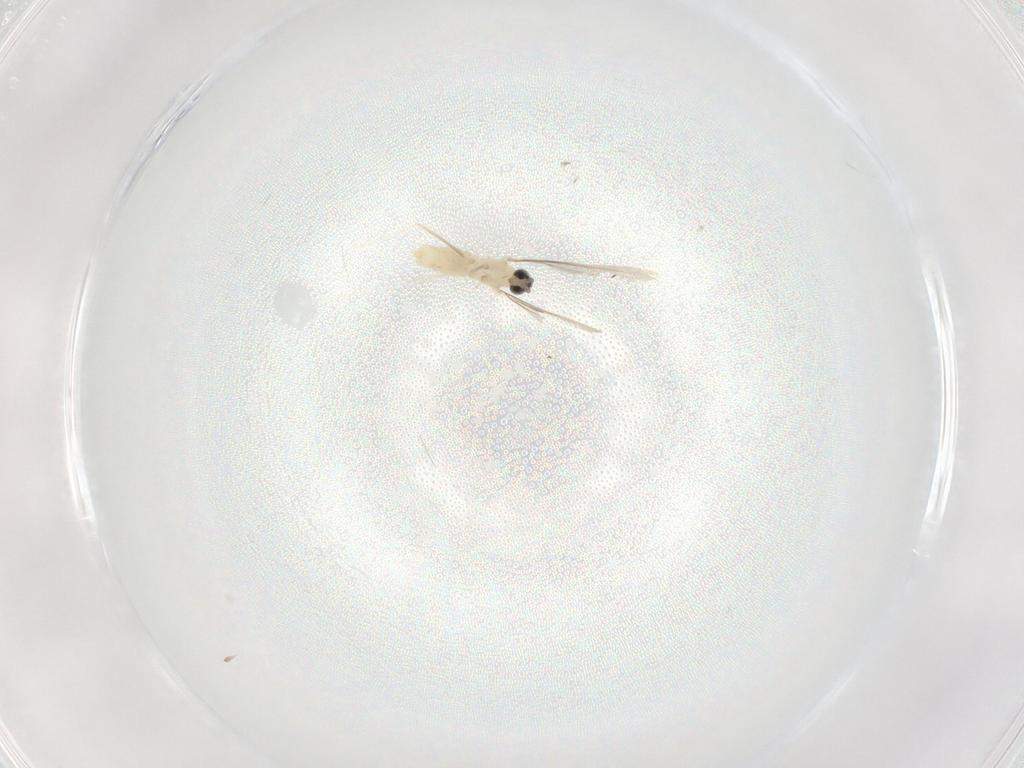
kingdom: Animalia
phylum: Arthropoda
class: Insecta
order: Diptera
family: Cecidomyiidae
